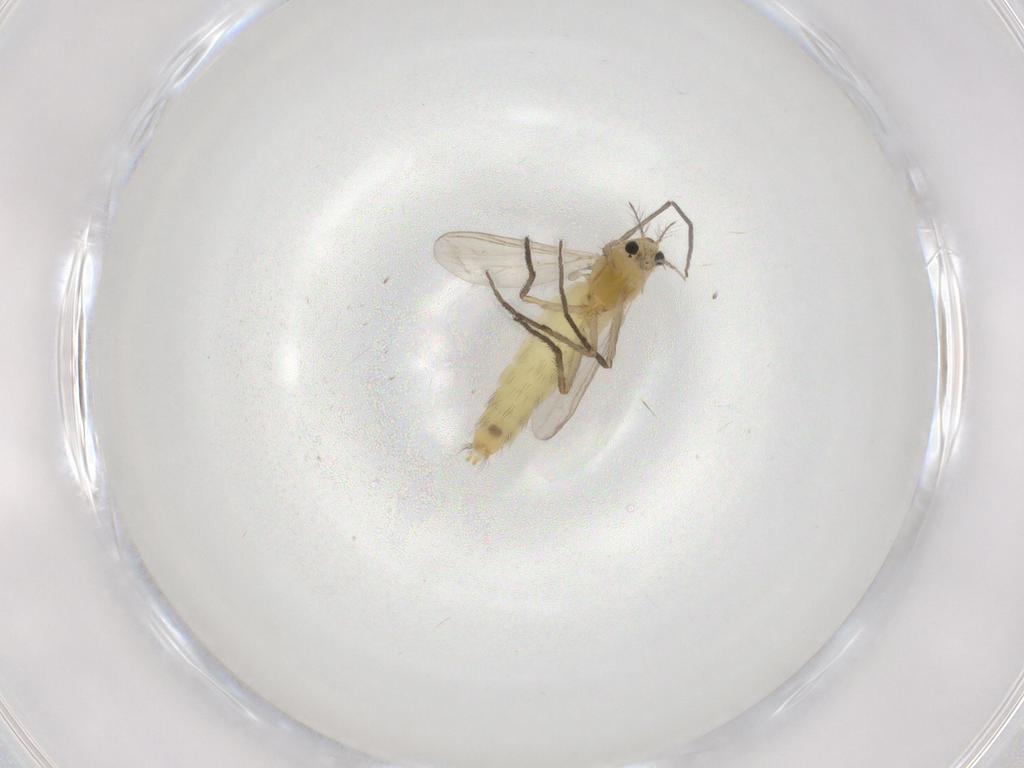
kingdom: Animalia
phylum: Arthropoda
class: Insecta
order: Diptera
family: Chironomidae
